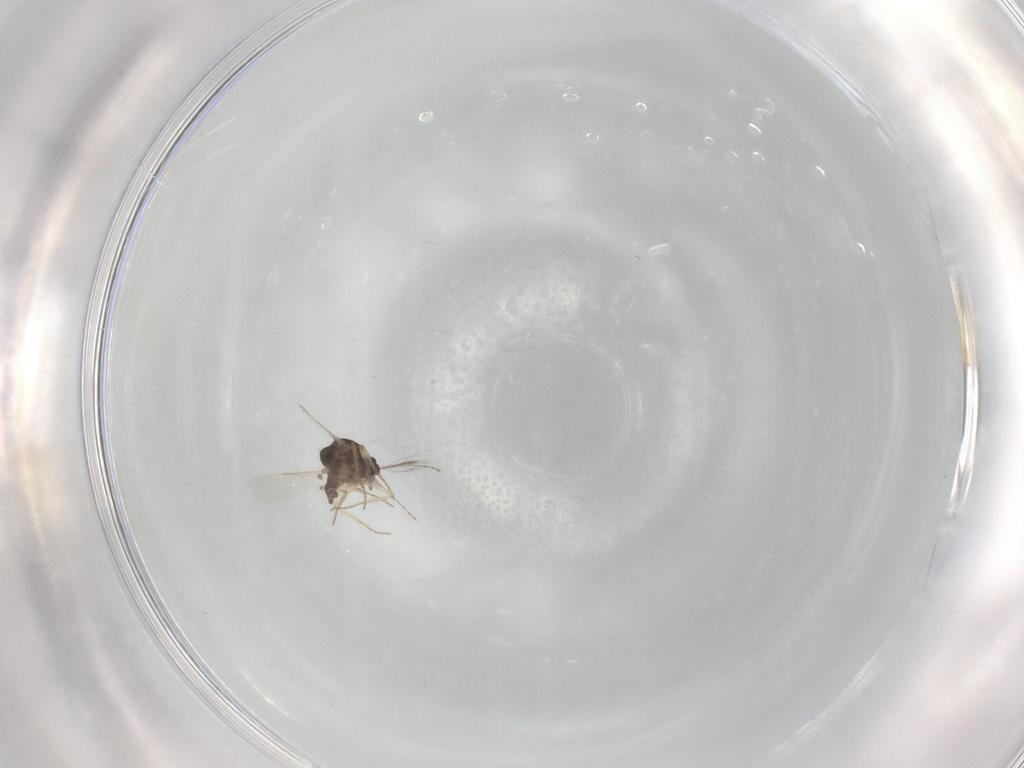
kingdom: Animalia
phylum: Arthropoda
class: Insecta
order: Diptera
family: Ceratopogonidae
